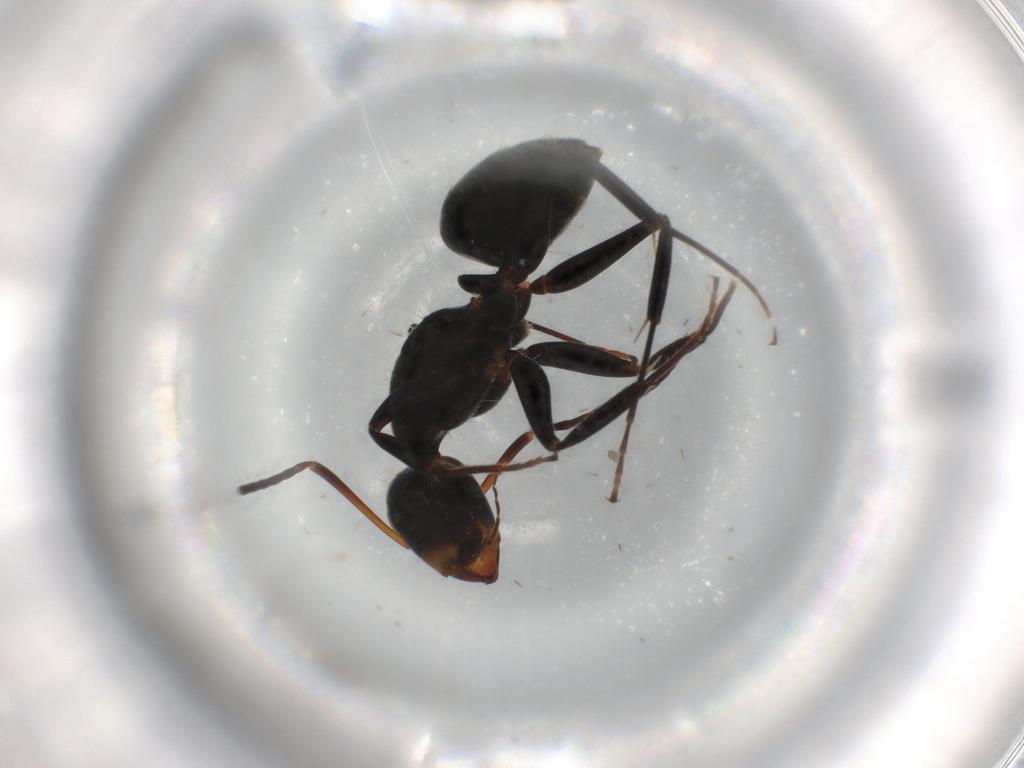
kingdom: Animalia
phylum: Arthropoda
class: Insecta
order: Hymenoptera
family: Formicidae
